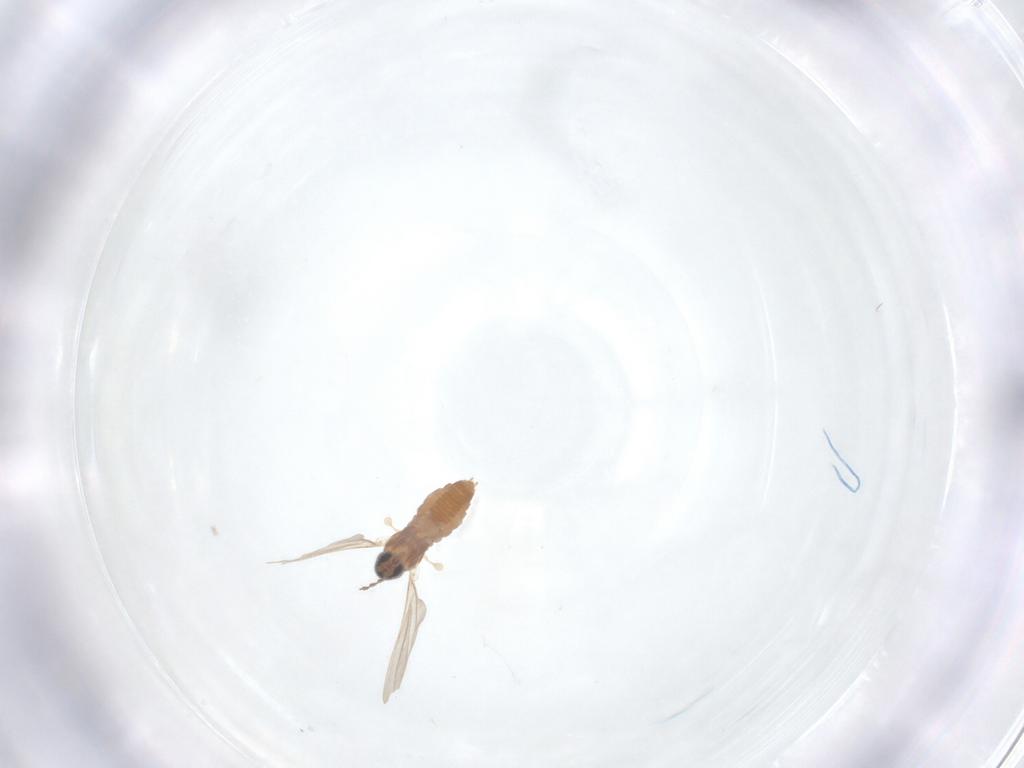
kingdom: Animalia
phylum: Arthropoda
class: Insecta
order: Diptera
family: Cecidomyiidae
